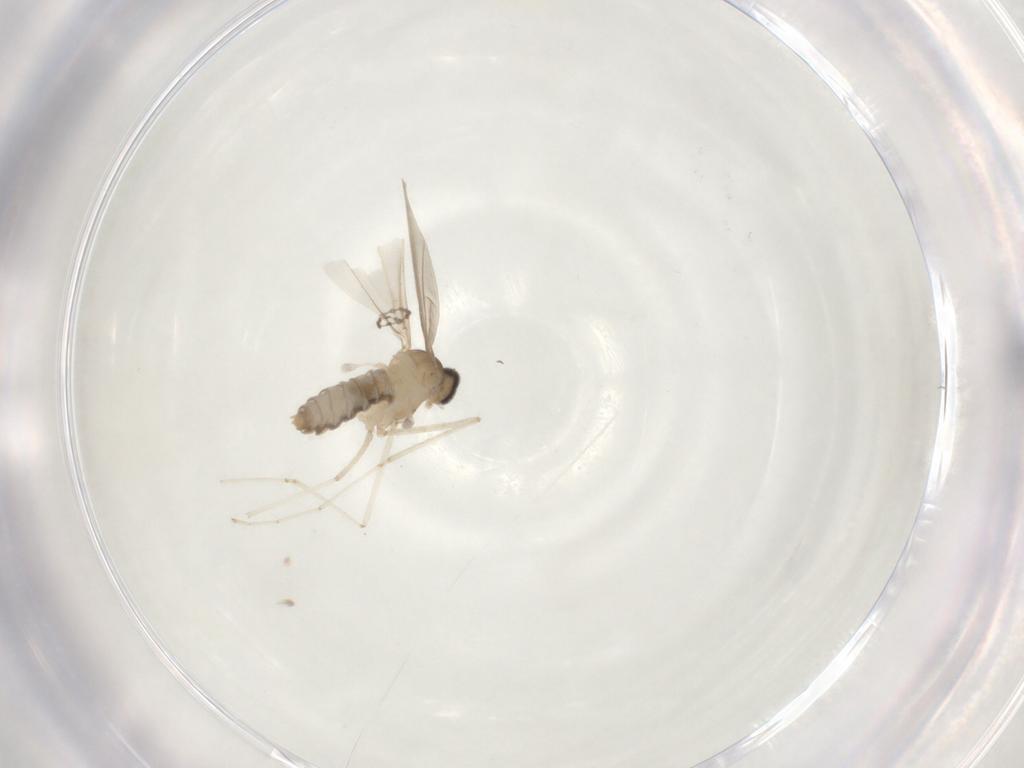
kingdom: Animalia
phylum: Arthropoda
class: Insecta
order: Diptera
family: Cecidomyiidae
